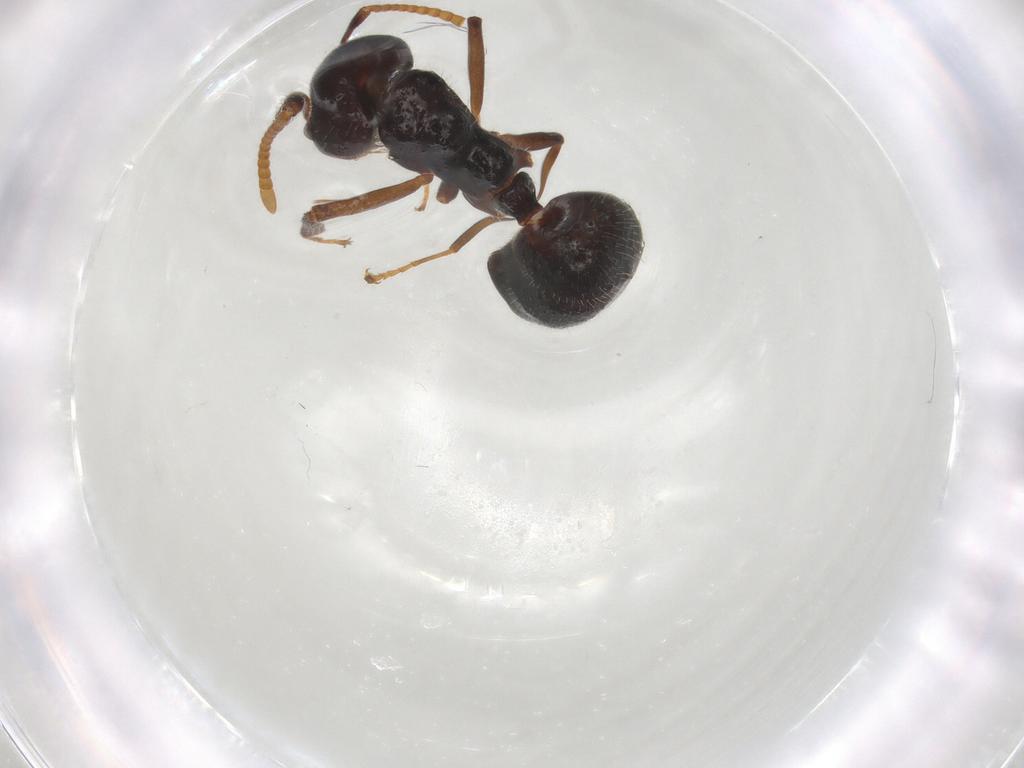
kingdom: Animalia
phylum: Arthropoda
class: Insecta
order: Hymenoptera
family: Formicidae
